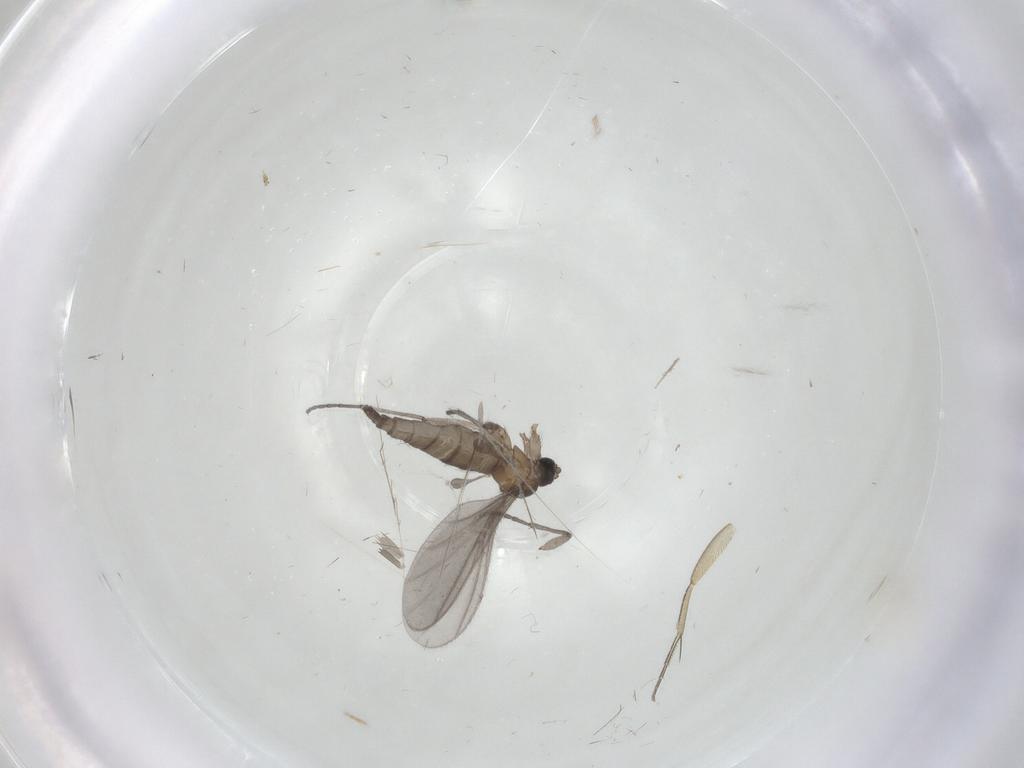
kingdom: Animalia
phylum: Arthropoda
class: Insecta
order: Diptera
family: Sciaridae
